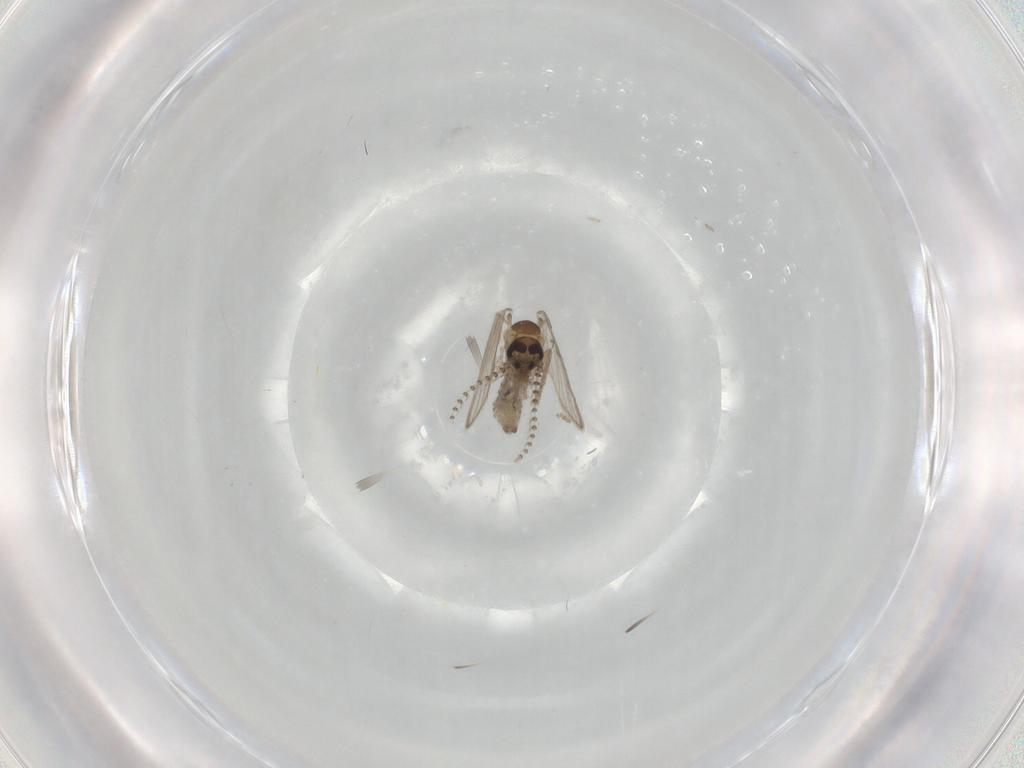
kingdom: Animalia
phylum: Arthropoda
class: Insecta
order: Diptera
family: Psychodidae
